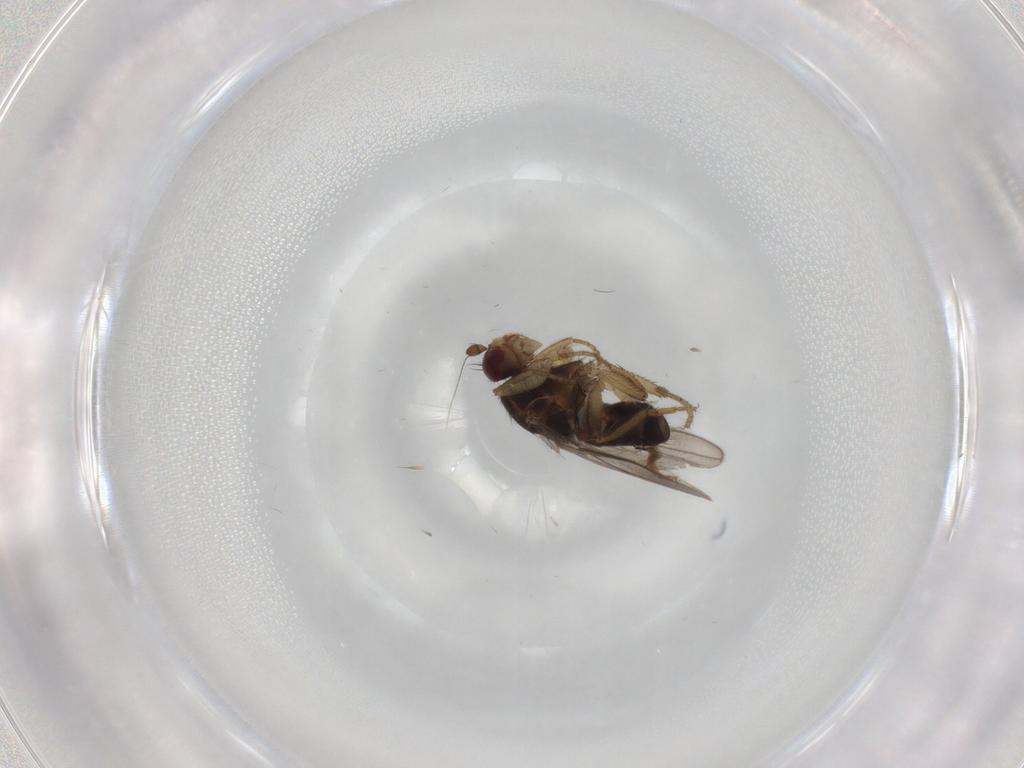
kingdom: Animalia
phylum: Arthropoda
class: Insecta
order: Diptera
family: Sphaeroceridae
